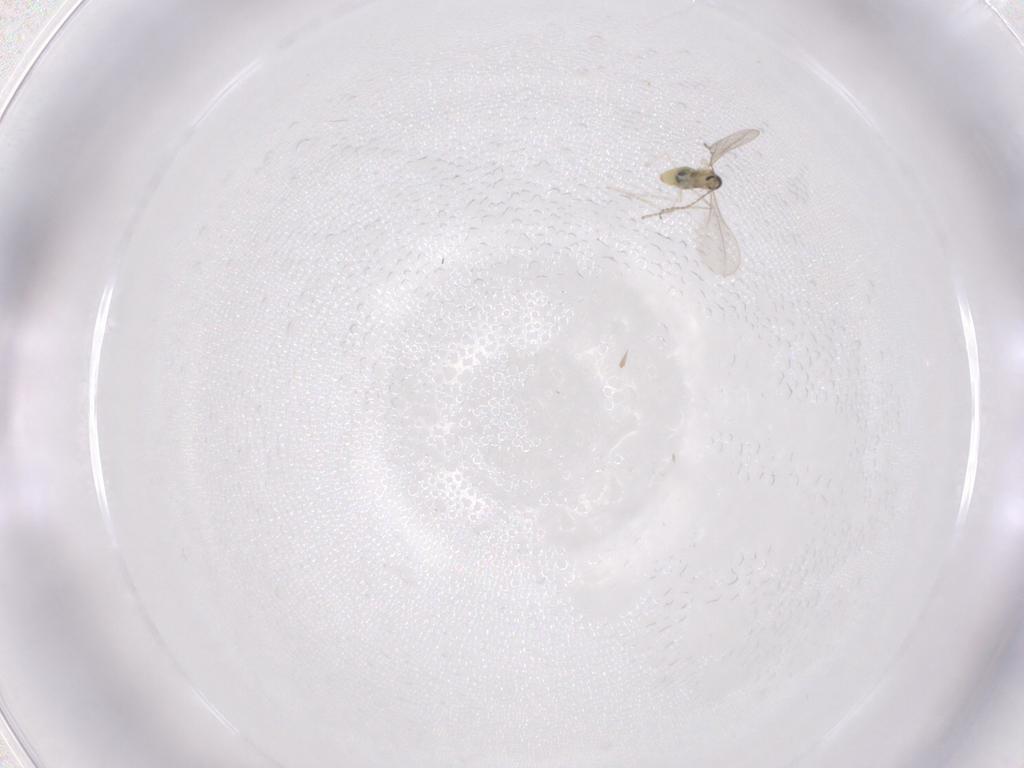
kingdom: Animalia
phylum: Arthropoda
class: Insecta
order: Diptera
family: Cecidomyiidae
